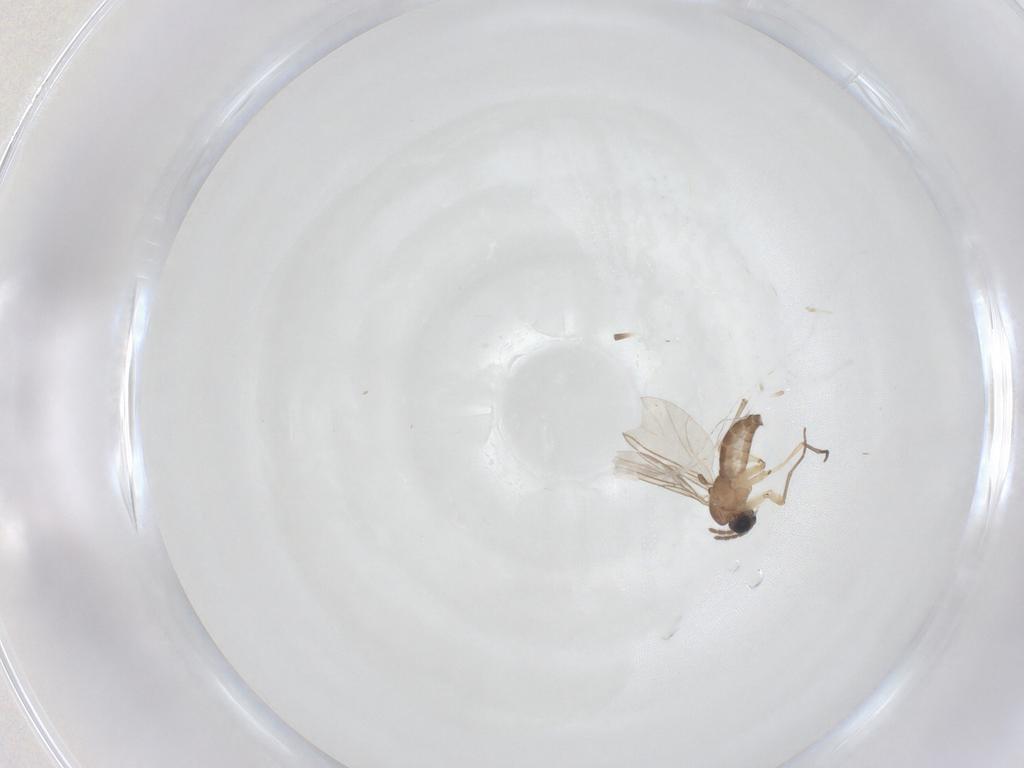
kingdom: Animalia
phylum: Arthropoda
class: Insecta
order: Diptera
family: Sciaridae
